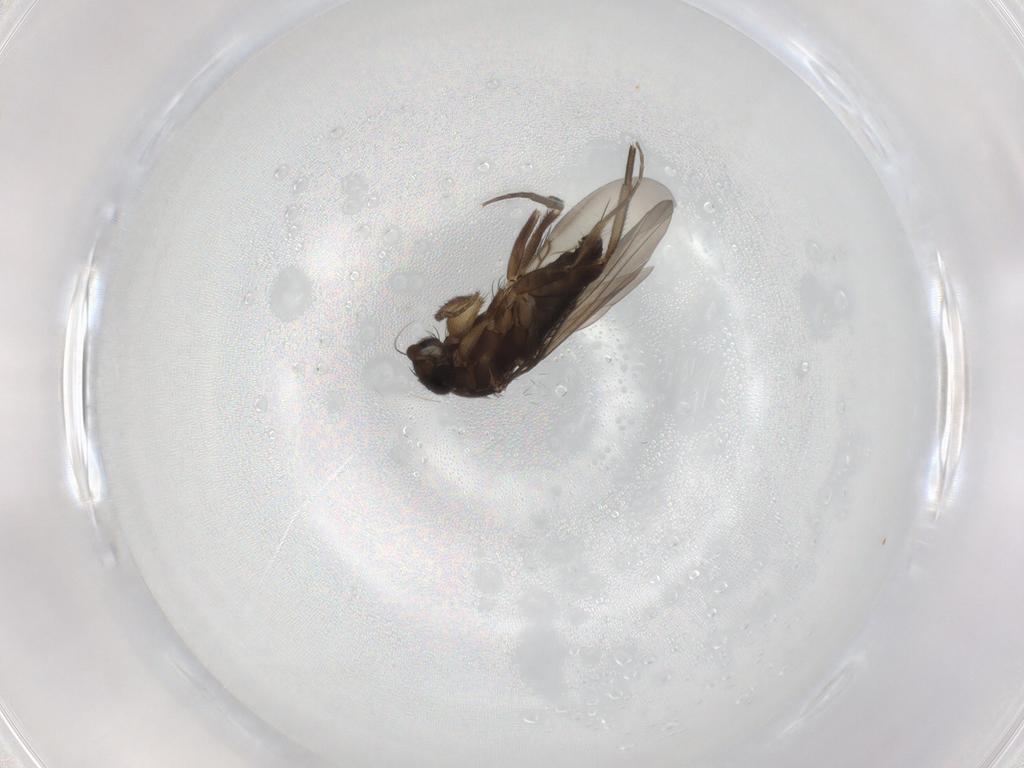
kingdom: Animalia
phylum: Arthropoda
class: Insecta
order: Diptera
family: Phoridae
